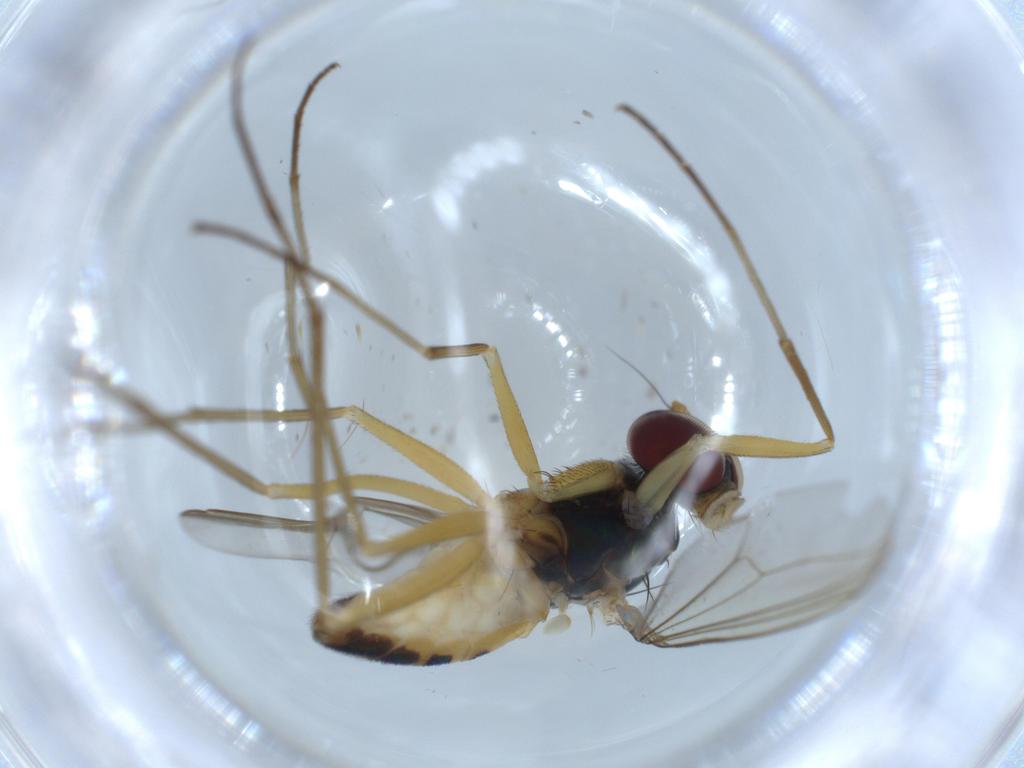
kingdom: Animalia
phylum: Arthropoda
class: Insecta
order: Diptera
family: Dolichopodidae
